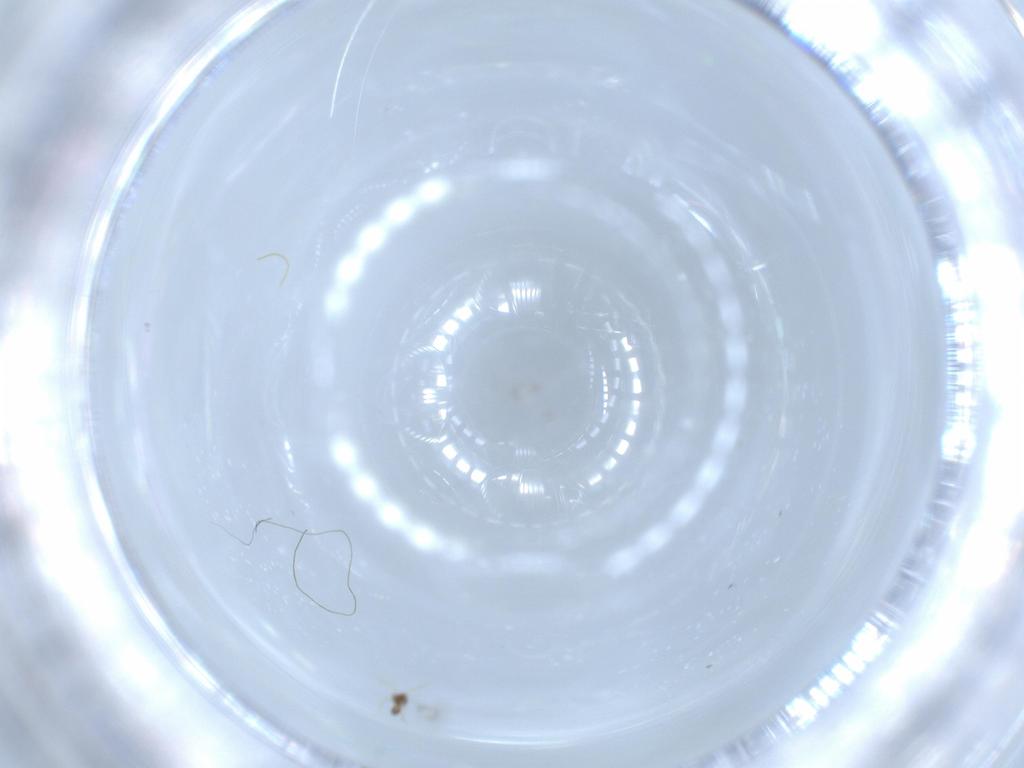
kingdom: Animalia
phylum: Arthropoda
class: Insecta
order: Hymenoptera
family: Mymarommatidae
